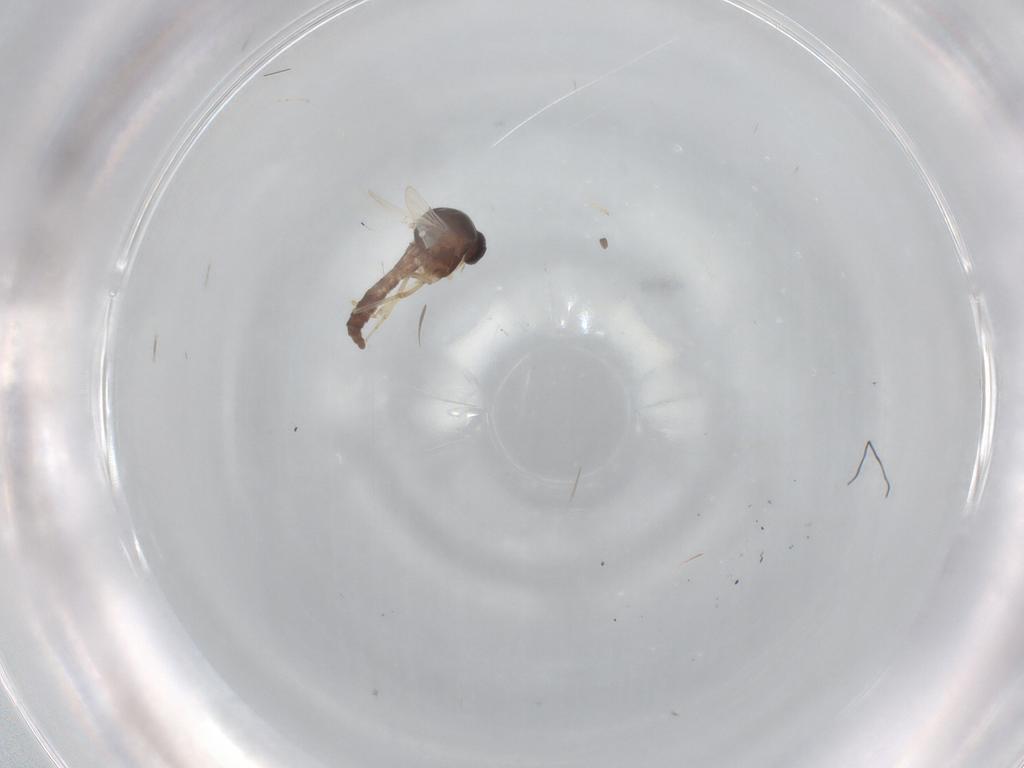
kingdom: Animalia
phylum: Arthropoda
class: Insecta
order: Diptera
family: Ceratopogonidae
